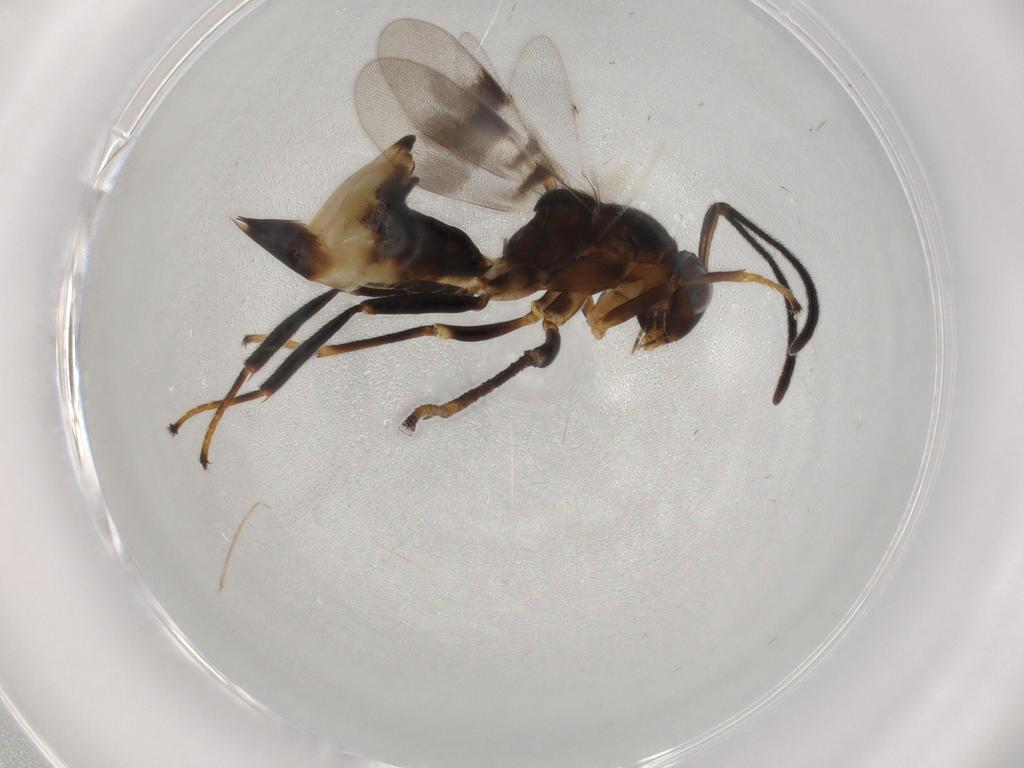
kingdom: Animalia
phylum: Arthropoda
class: Insecta
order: Hymenoptera
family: Encyrtidae
